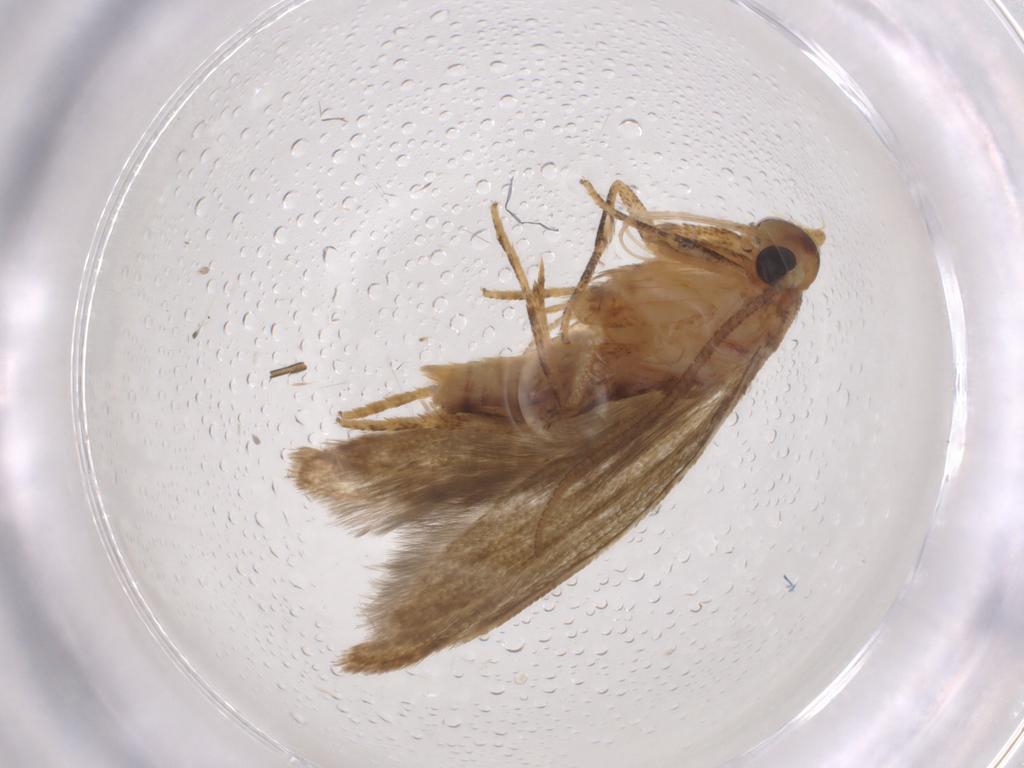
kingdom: Animalia
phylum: Arthropoda
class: Insecta
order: Lepidoptera
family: Blastobasidae
